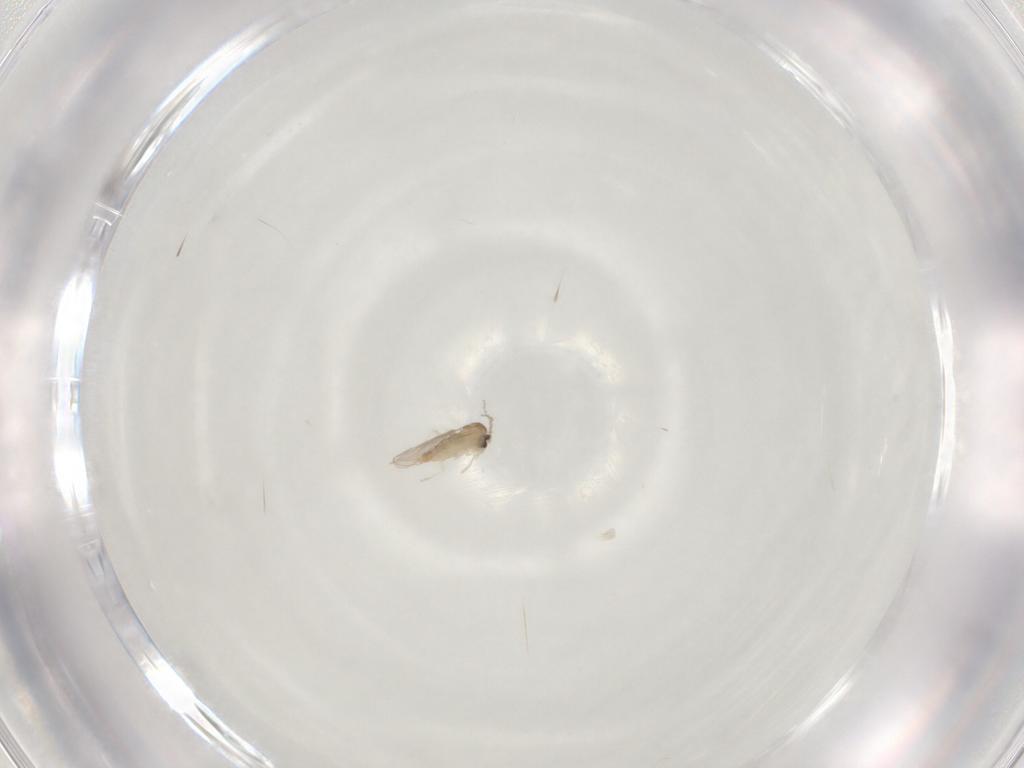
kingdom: Animalia
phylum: Arthropoda
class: Insecta
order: Diptera
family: Cecidomyiidae
